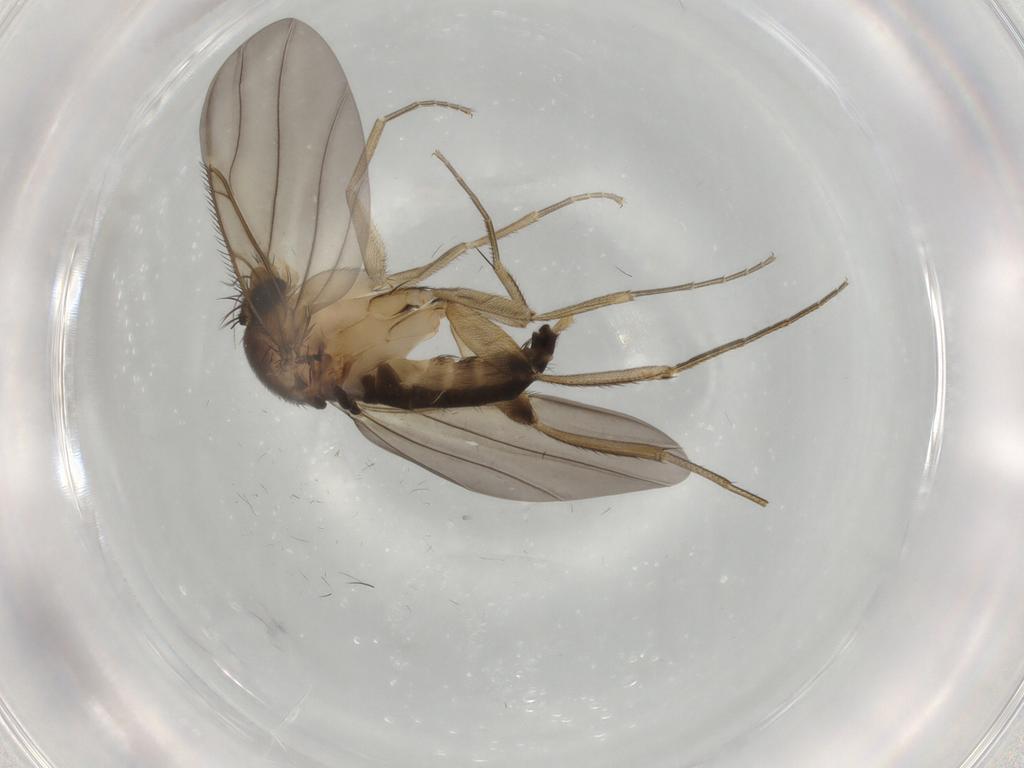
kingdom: Animalia
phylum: Arthropoda
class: Insecta
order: Diptera
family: Phoridae
